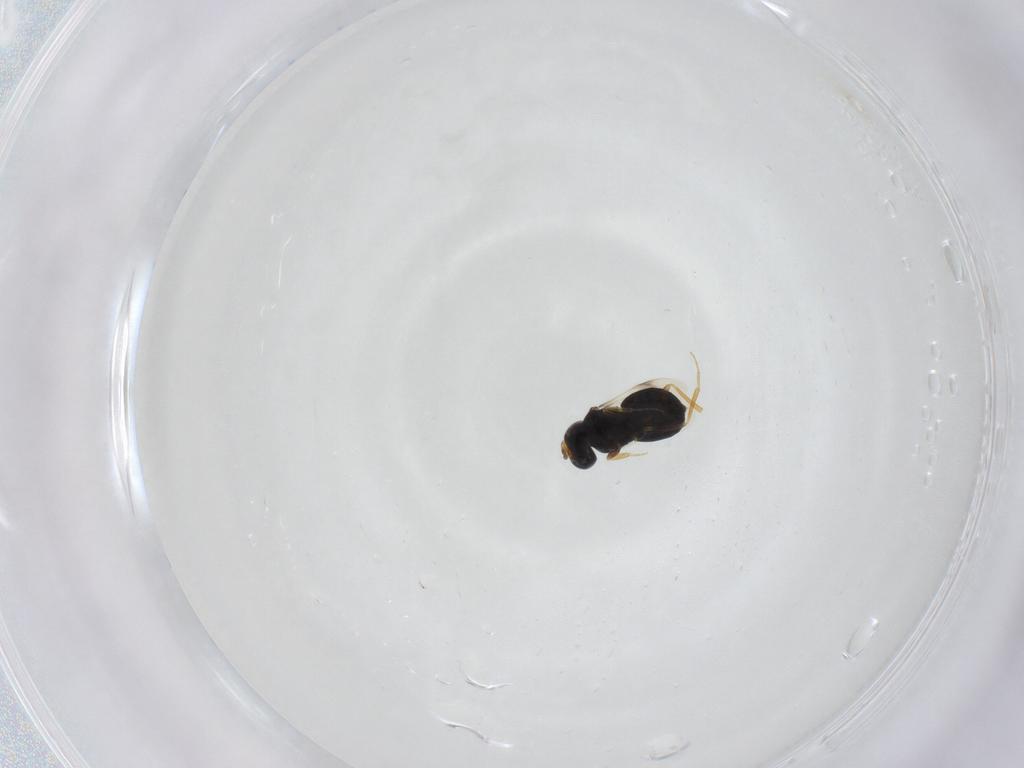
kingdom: Animalia
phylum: Arthropoda
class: Insecta
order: Hymenoptera
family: Scelionidae
